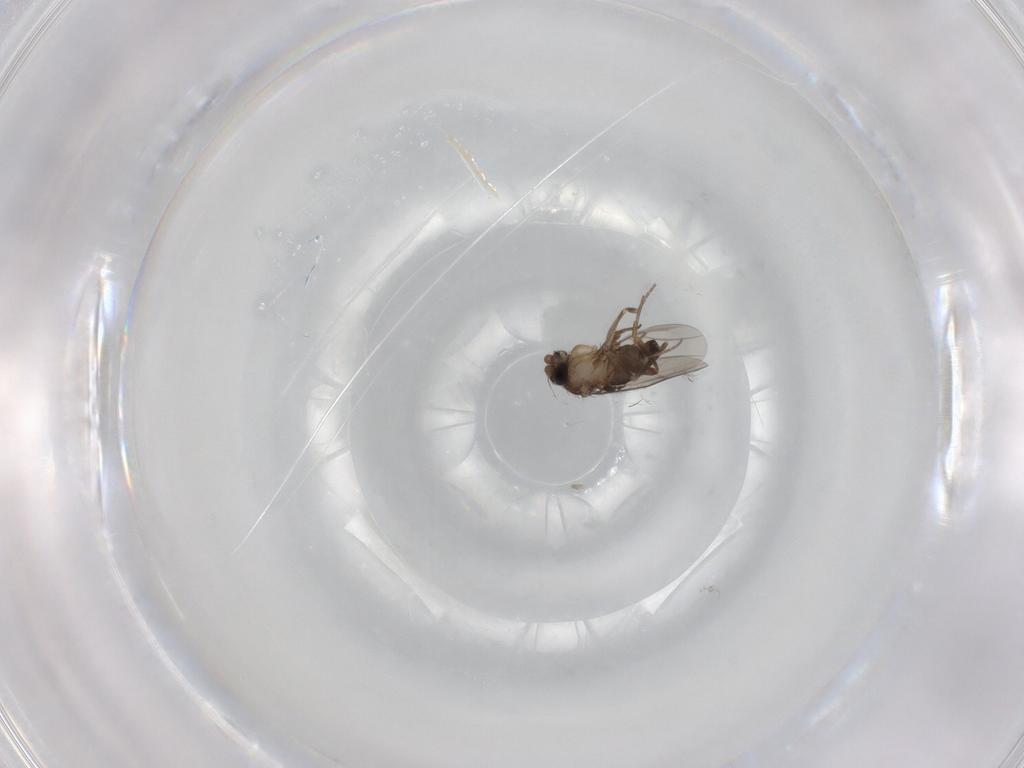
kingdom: Animalia
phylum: Arthropoda
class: Insecta
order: Diptera
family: Phoridae
